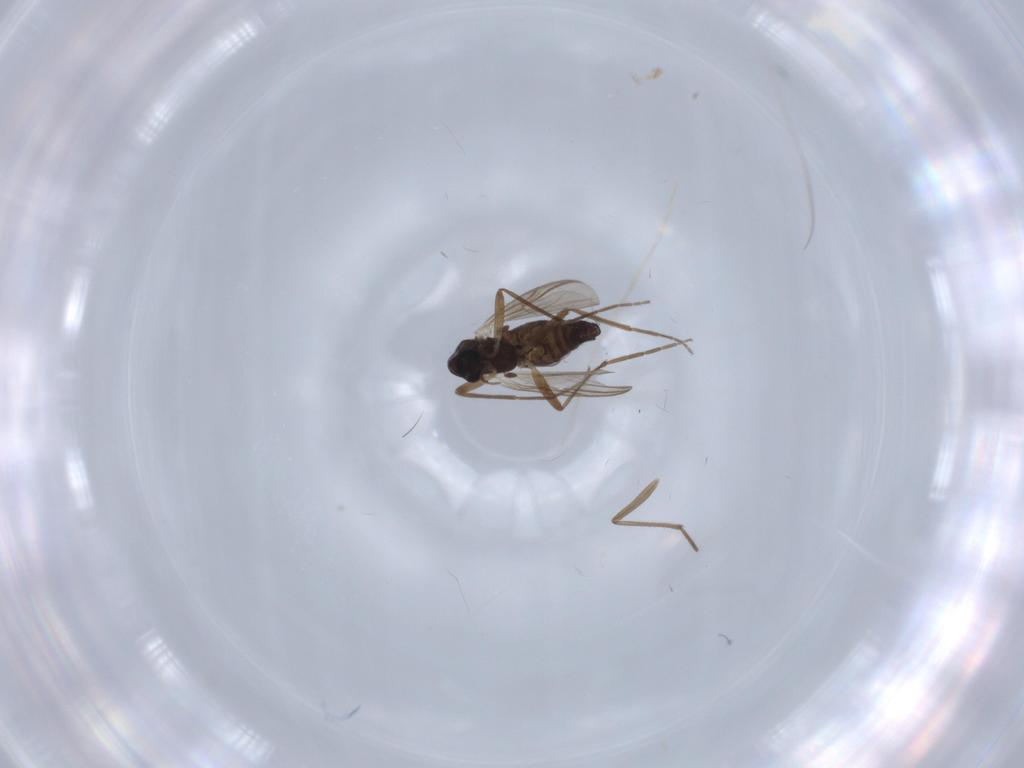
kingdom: Animalia
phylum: Arthropoda
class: Insecta
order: Diptera
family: Chironomidae
